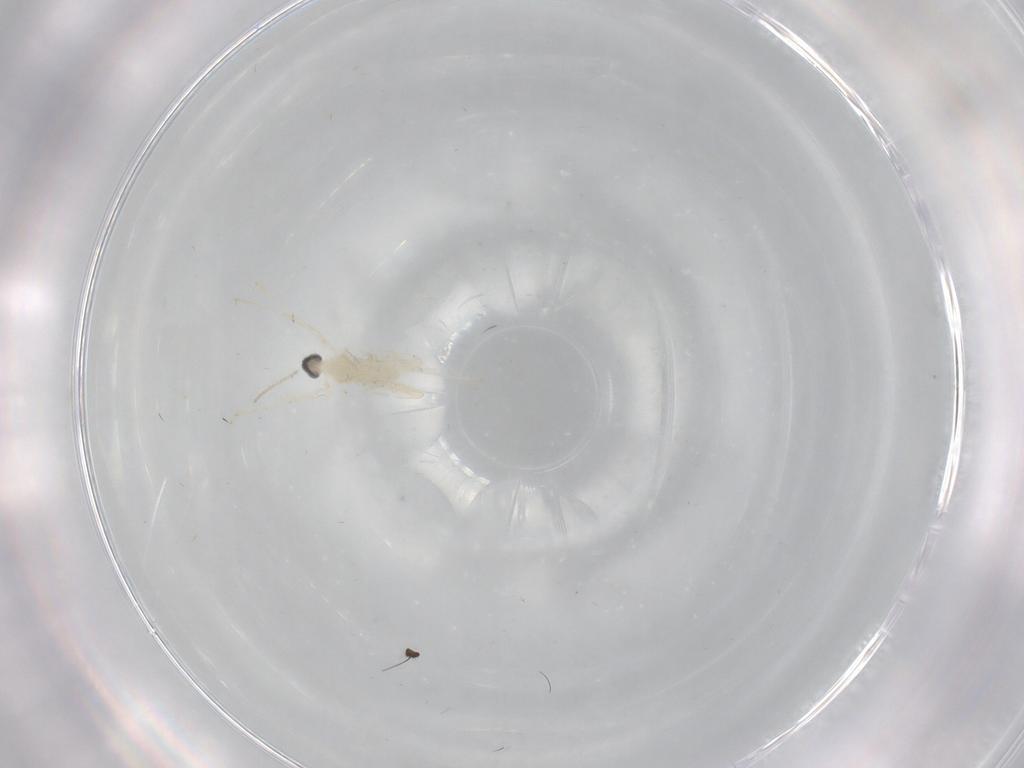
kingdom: Animalia
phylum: Arthropoda
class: Insecta
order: Diptera
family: Cecidomyiidae
